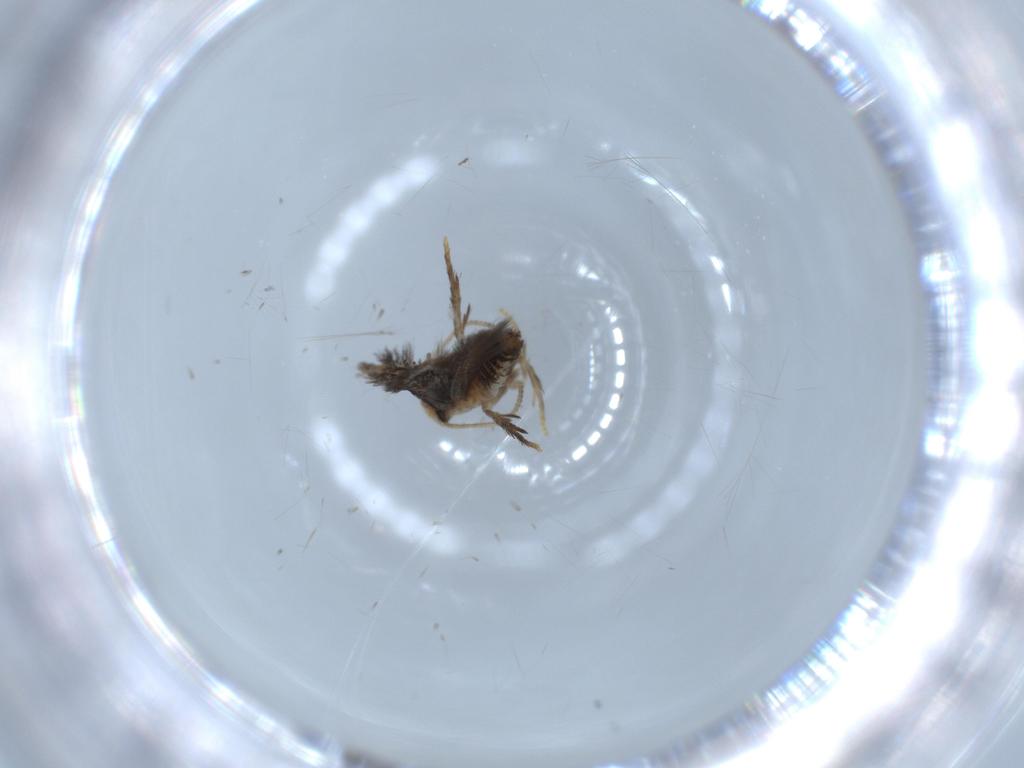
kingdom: Animalia
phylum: Arthropoda
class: Insecta
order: Lepidoptera
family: Nepticulidae
